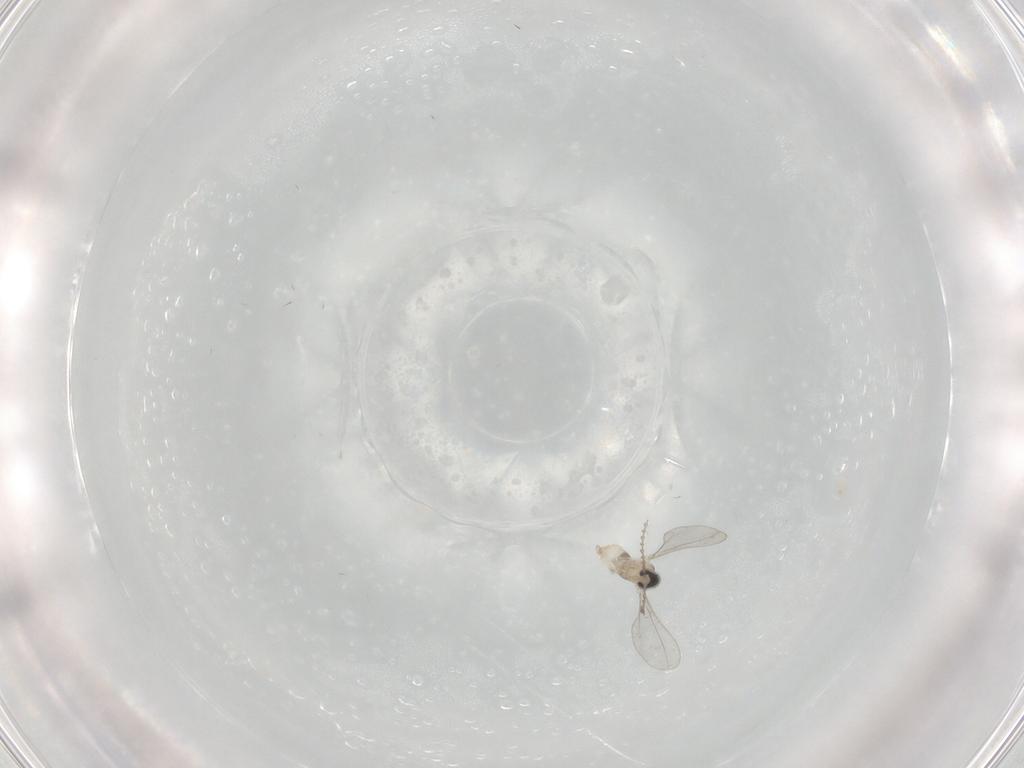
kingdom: Animalia
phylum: Arthropoda
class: Insecta
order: Diptera
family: Cecidomyiidae
